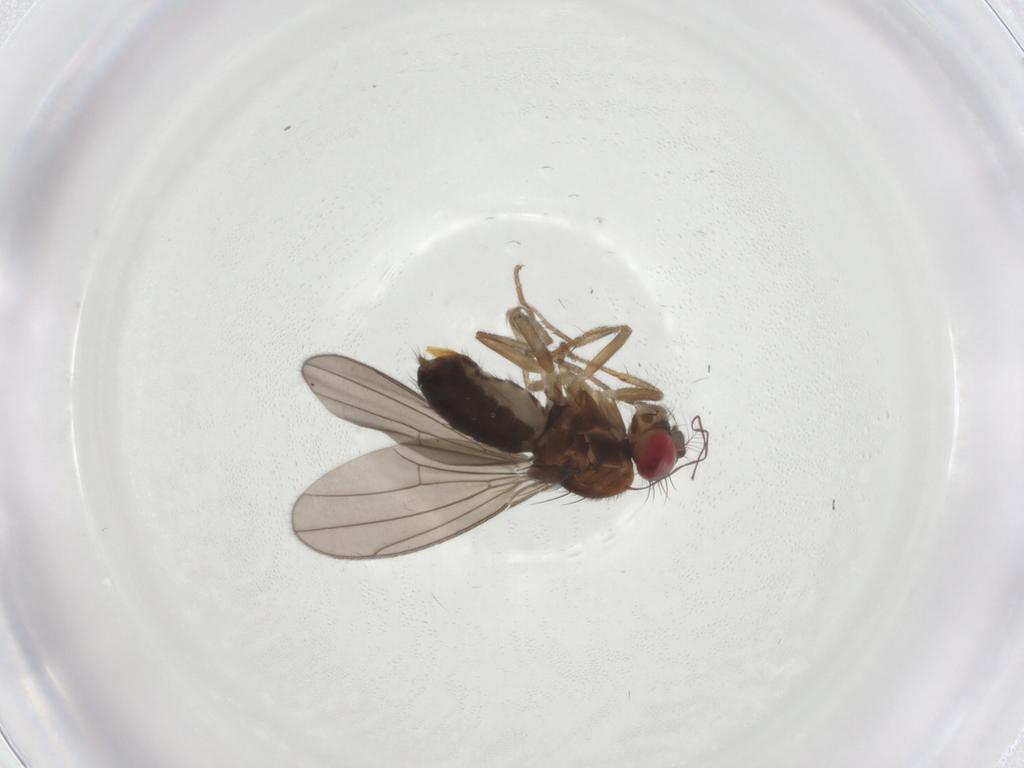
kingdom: Animalia
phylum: Arthropoda
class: Insecta
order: Diptera
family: Drosophilidae
